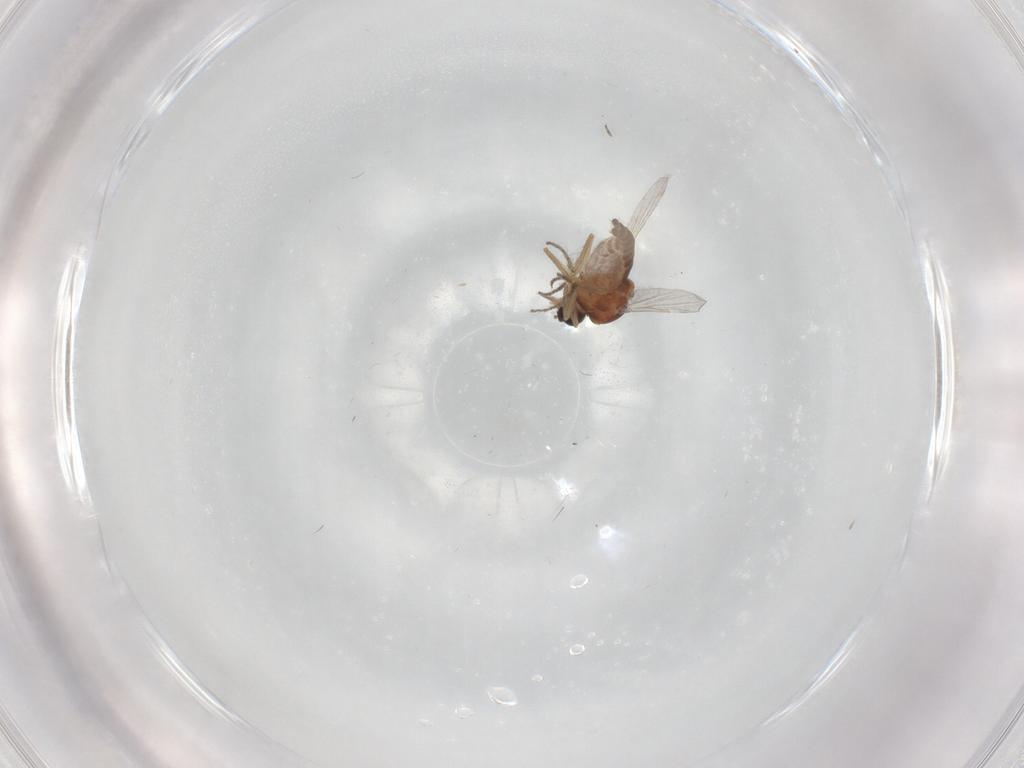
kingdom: Animalia
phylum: Arthropoda
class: Insecta
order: Diptera
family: Ceratopogonidae
